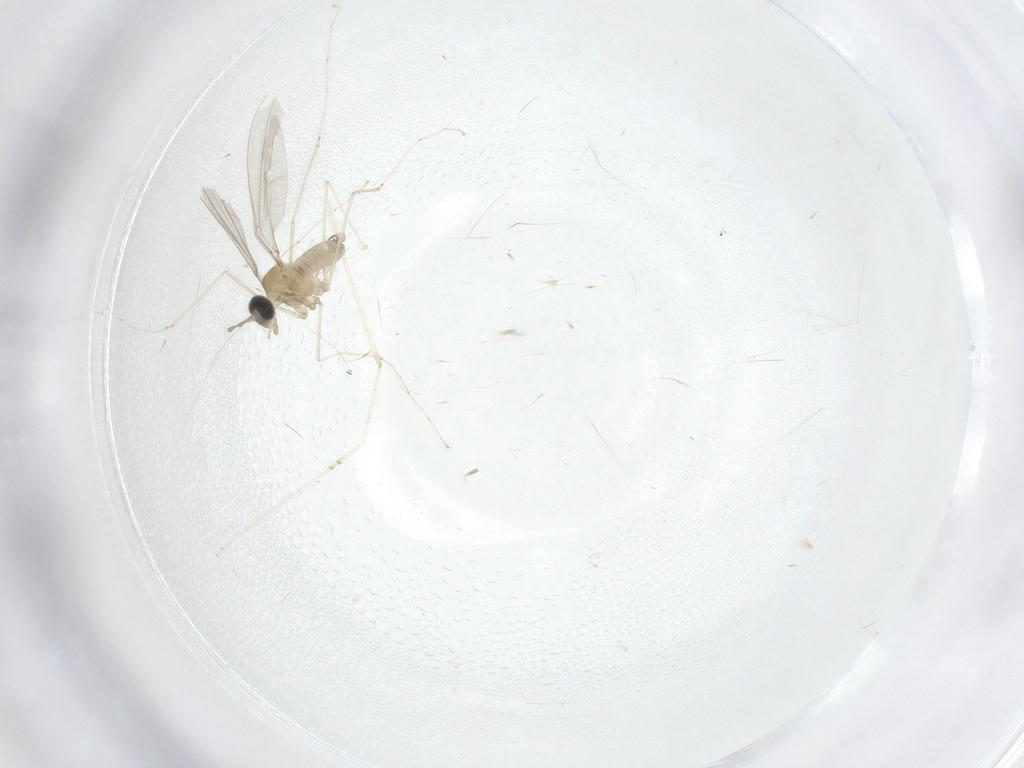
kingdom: Animalia
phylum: Arthropoda
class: Insecta
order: Diptera
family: Cecidomyiidae
